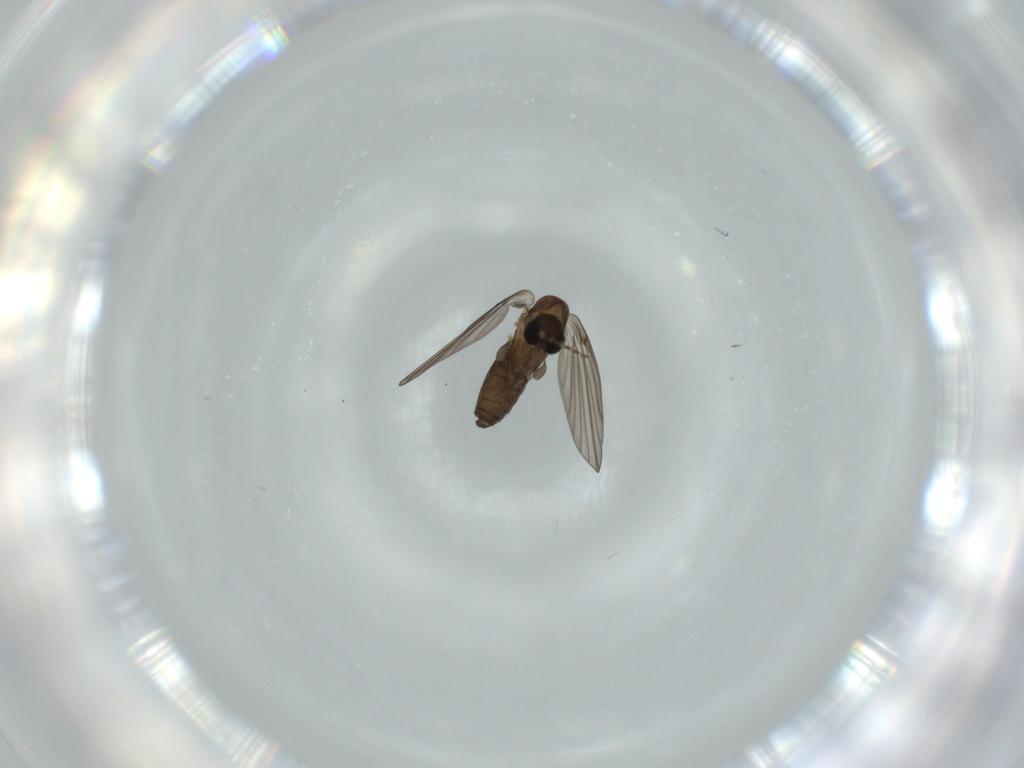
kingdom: Animalia
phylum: Arthropoda
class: Insecta
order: Diptera
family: Psychodidae
